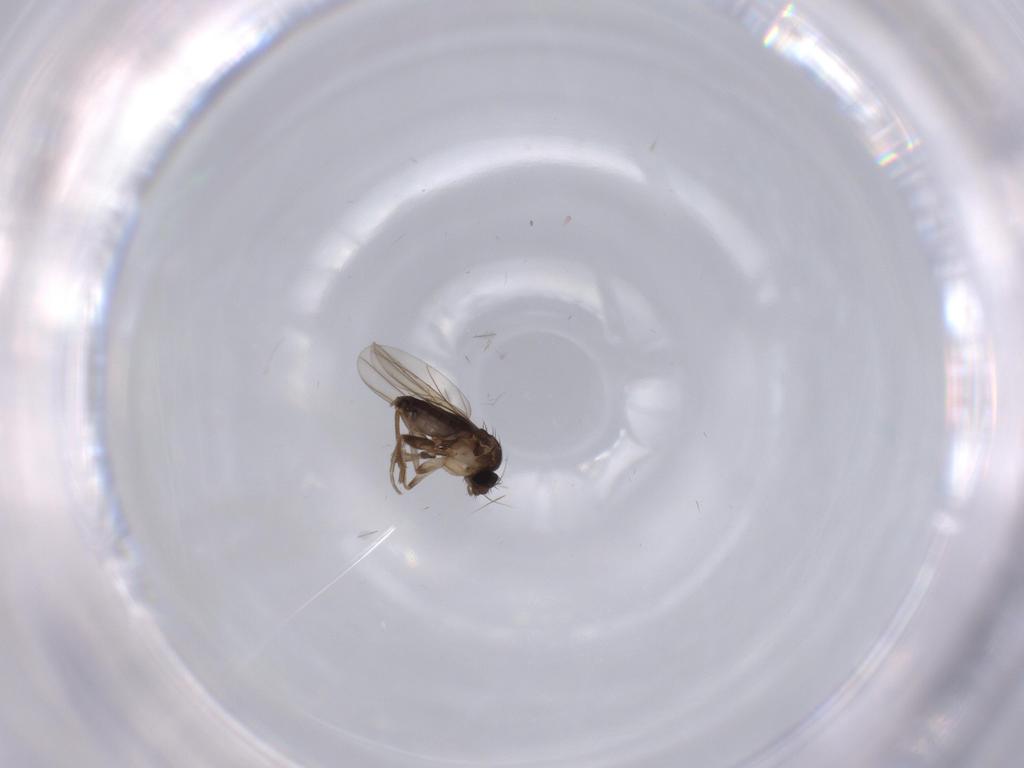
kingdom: Animalia
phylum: Arthropoda
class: Insecta
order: Diptera
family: Phoridae
